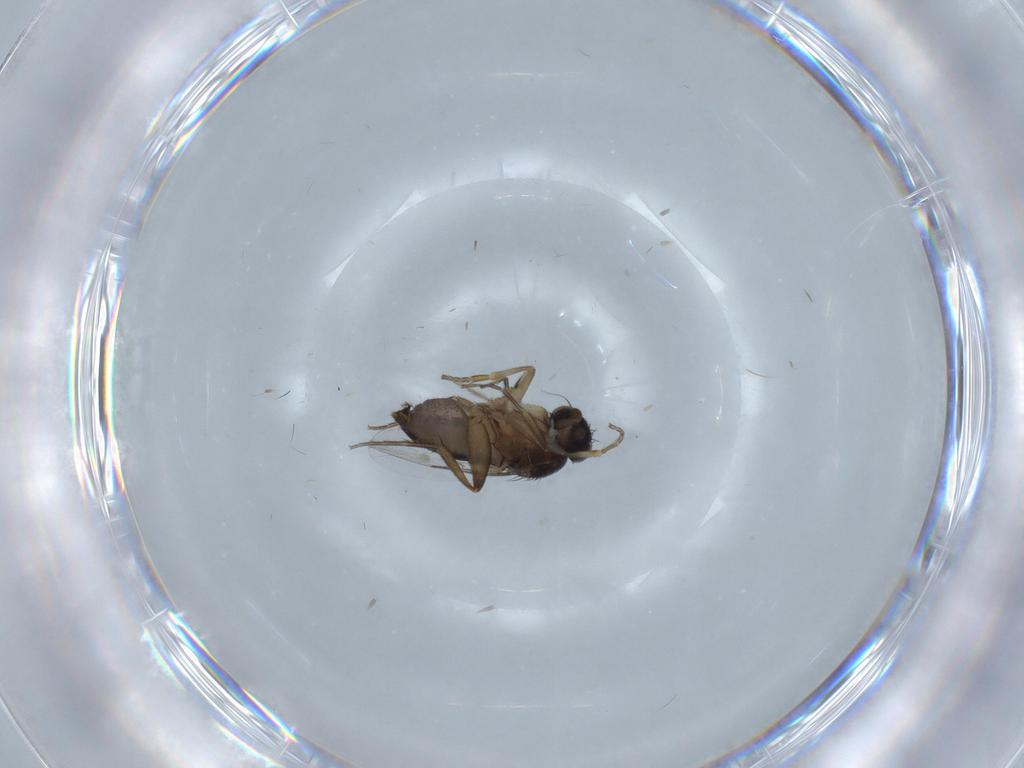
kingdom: Animalia
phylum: Arthropoda
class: Insecta
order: Diptera
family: Phoridae
